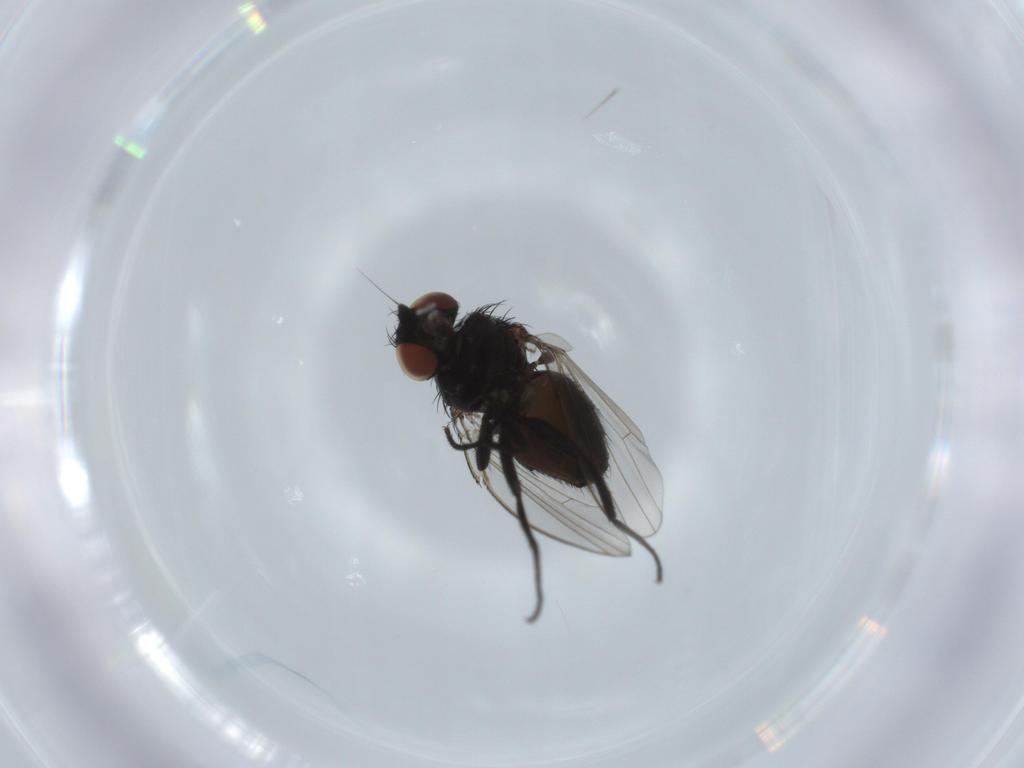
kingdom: Animalia
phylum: Arthropoda
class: Insecta
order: Diptera
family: Milichiidae
